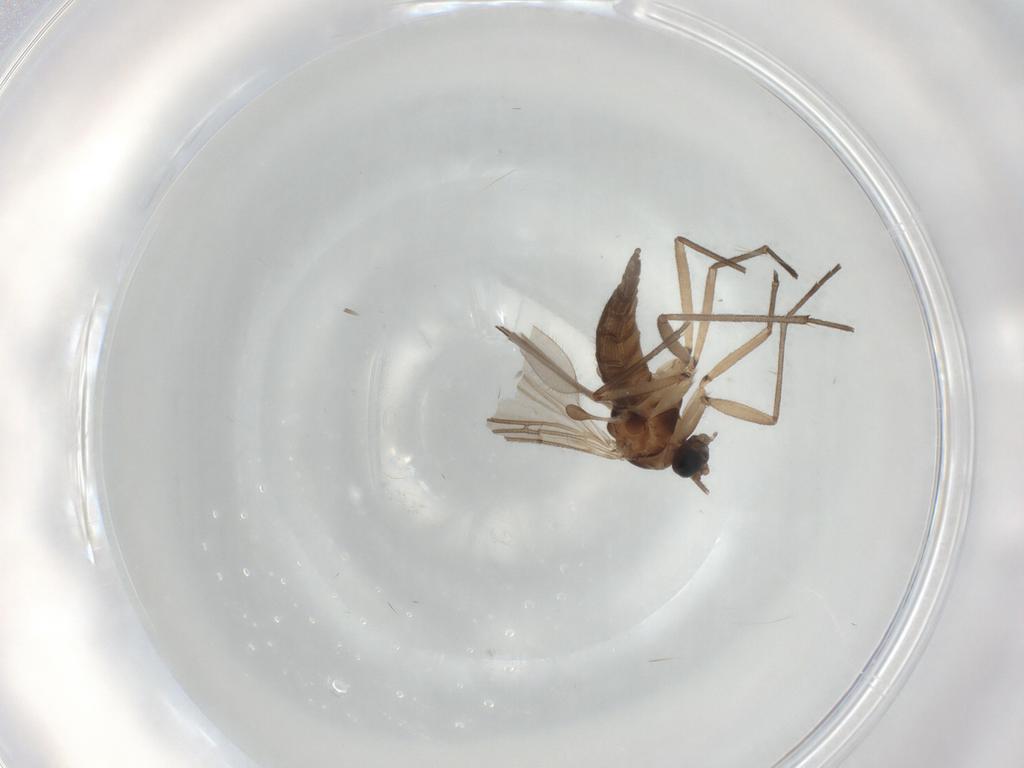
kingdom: Animalia
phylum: Arthropoda
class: Insecta
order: Diptera
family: Sciaridae
